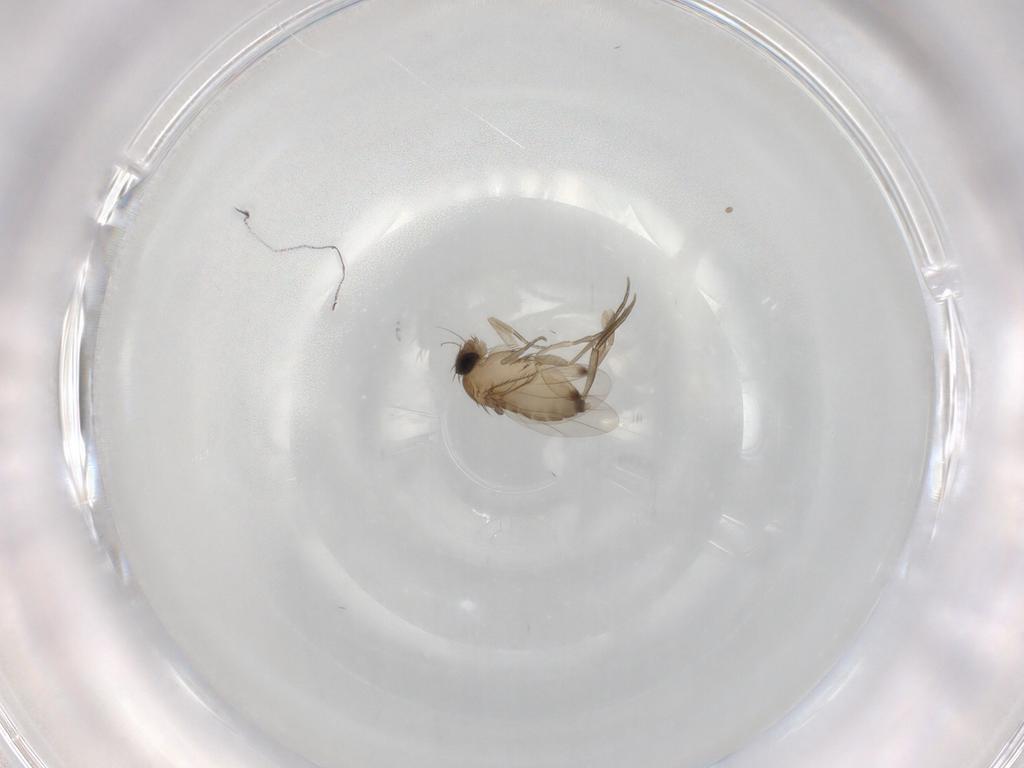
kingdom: Animalia
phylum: Arthropoda
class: Insecta
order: Diptera
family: Phoridae
